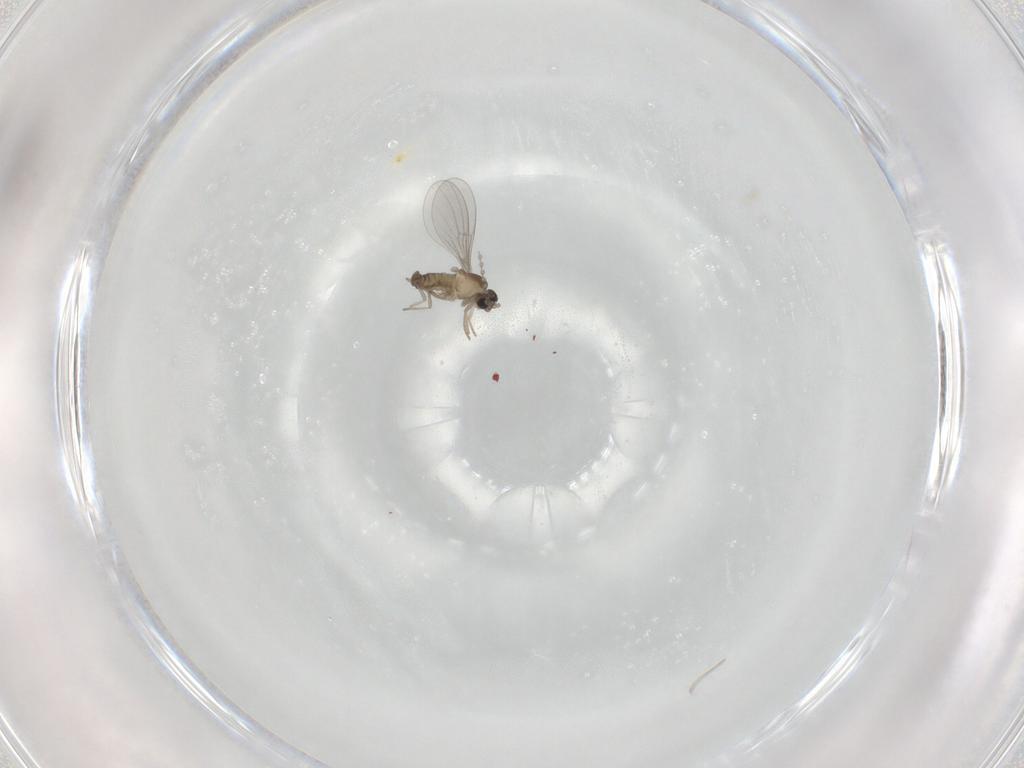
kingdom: Animalia
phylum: Arthropoda
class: Insecta
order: Diptera
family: Cecidomyiidae
